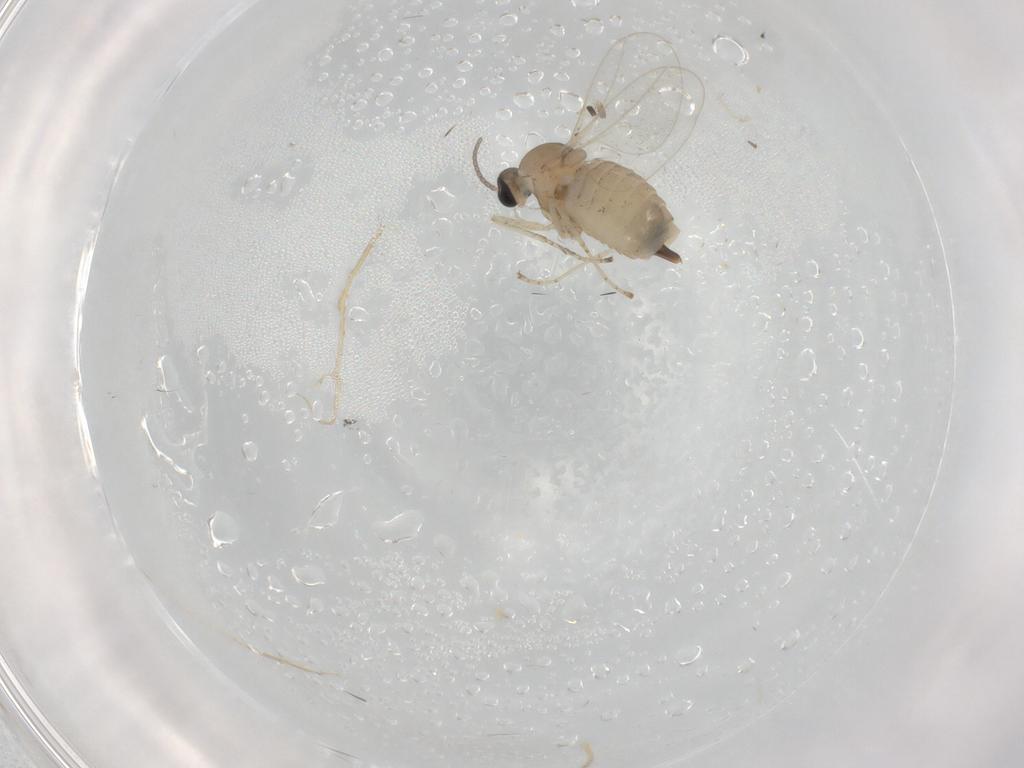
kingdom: Animalia
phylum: Arthropoda
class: Insecta
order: Diptera
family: Cecidomyiidae
